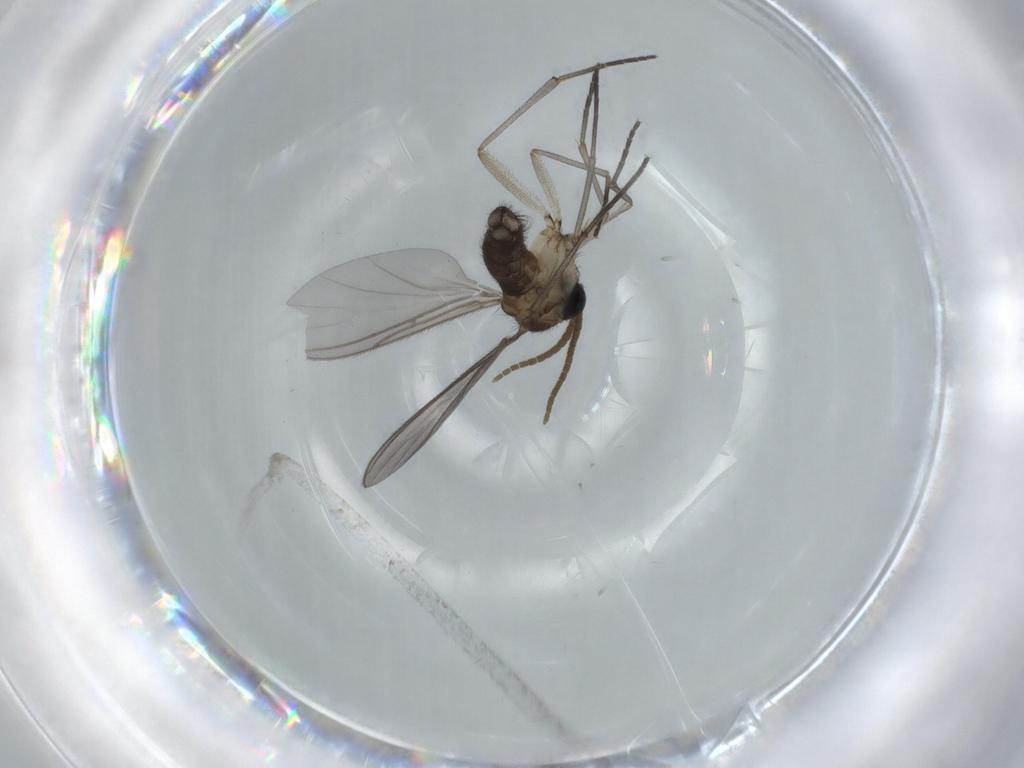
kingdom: Animalia
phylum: Arthropoda
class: Insecta
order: Diptera
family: Sciaridae
